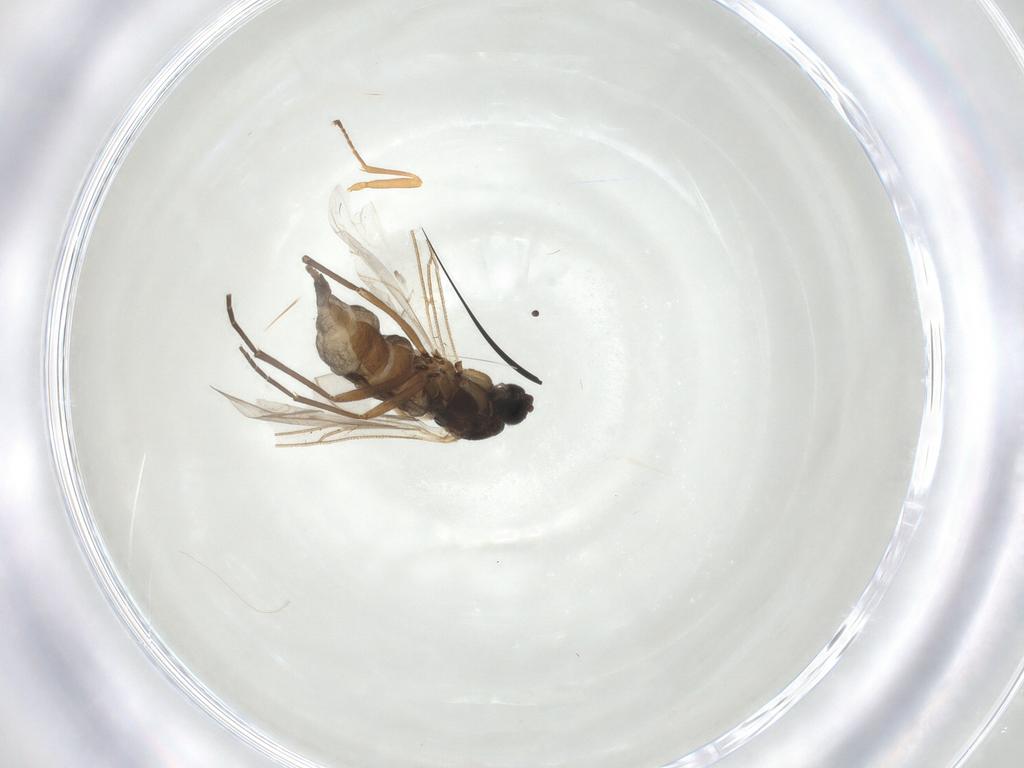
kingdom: Animalia
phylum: Arthropoda
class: Insecta
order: Diptera
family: Sciaridae
